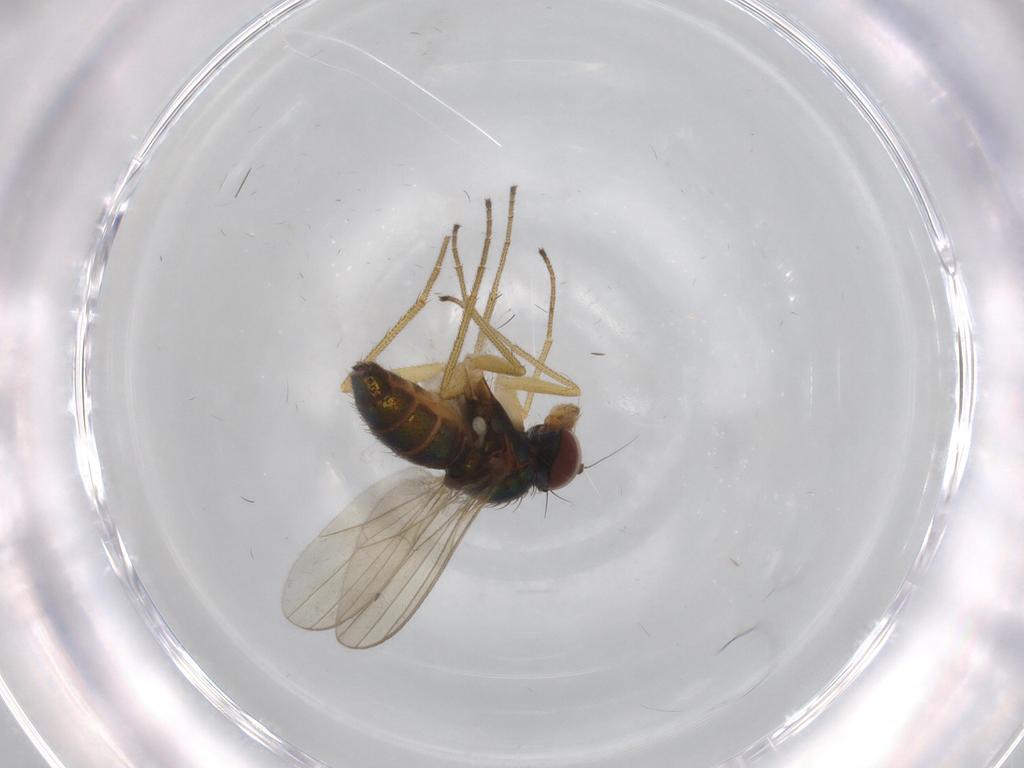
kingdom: Animalia
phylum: Arthropoda
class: Insecta
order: Diptera
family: Dolichopodidae
